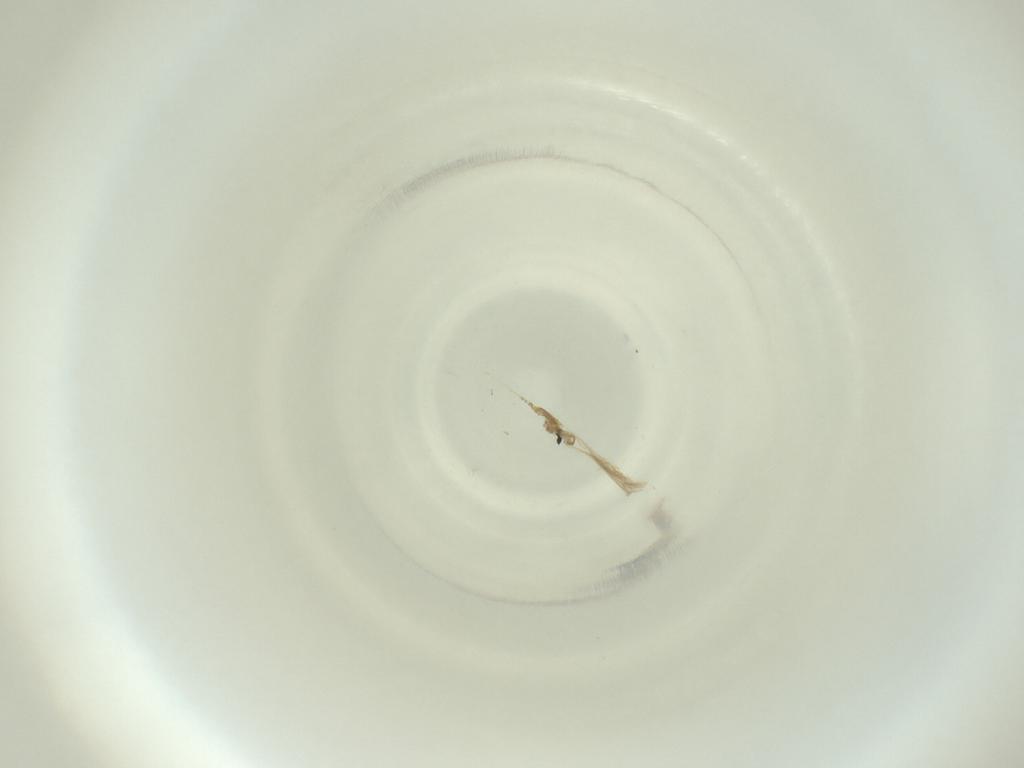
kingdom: Animalia
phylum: Arthropoda
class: Insecta
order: Diptera
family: Cecidomyiidae
